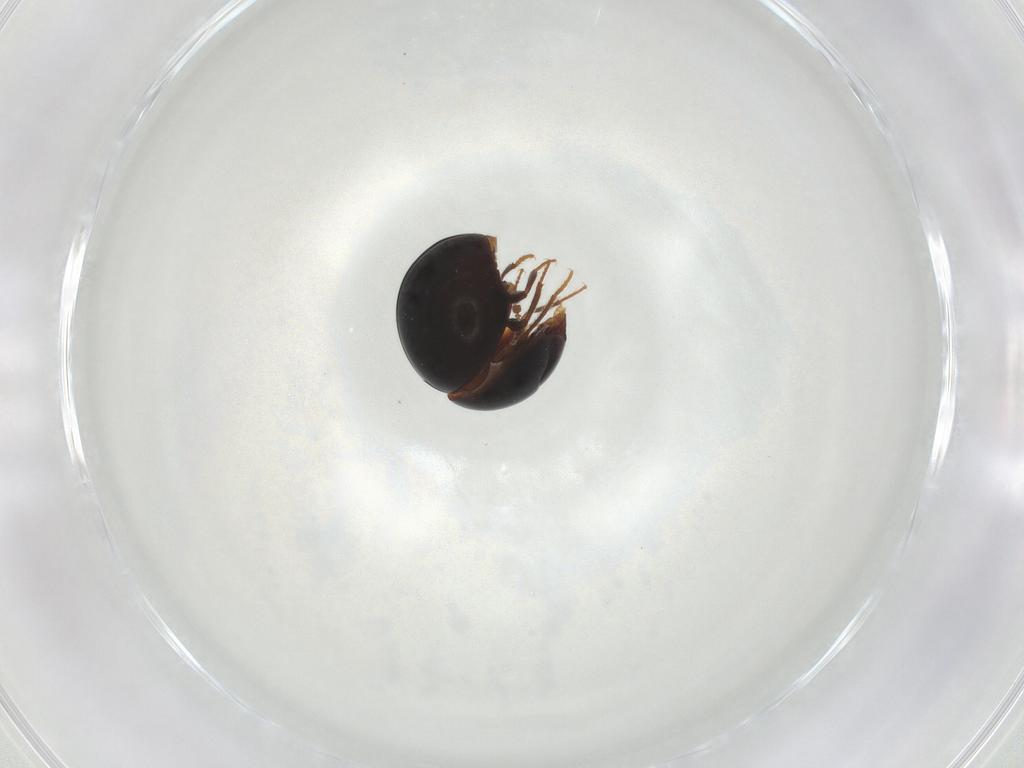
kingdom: Animalia
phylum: Arthropoda
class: Insecta
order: Coleoptera
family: Leiodidae
